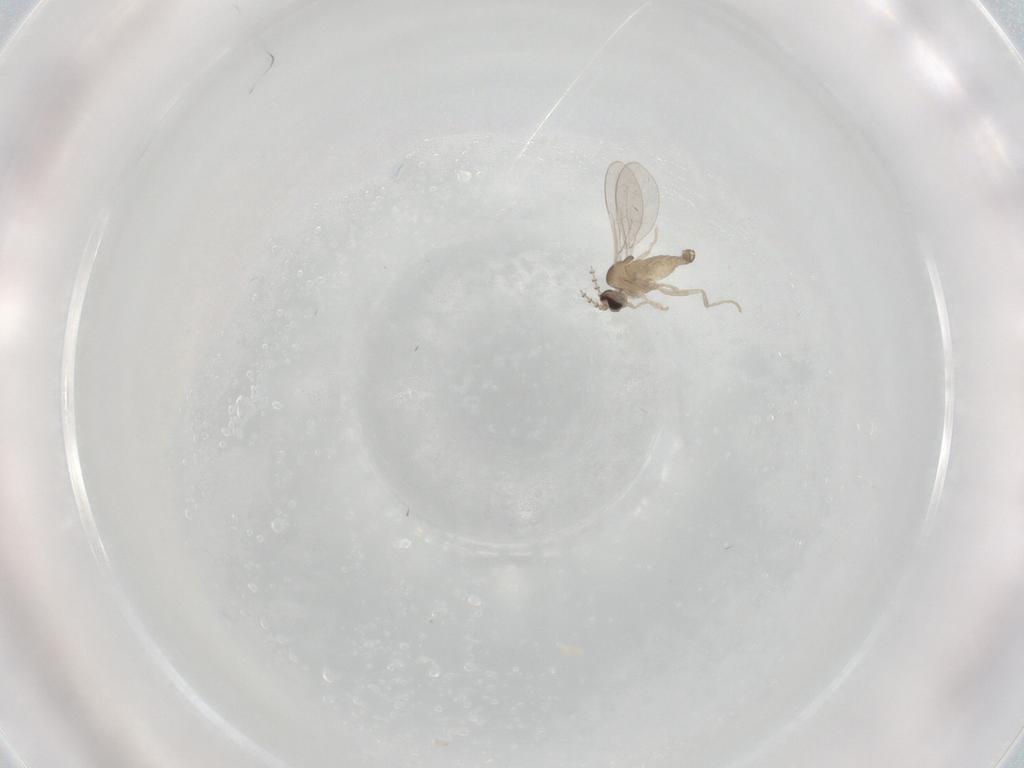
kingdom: Animalia
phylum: Arthropoda
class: Insecta
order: Diptera
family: Cecidomyiidae
